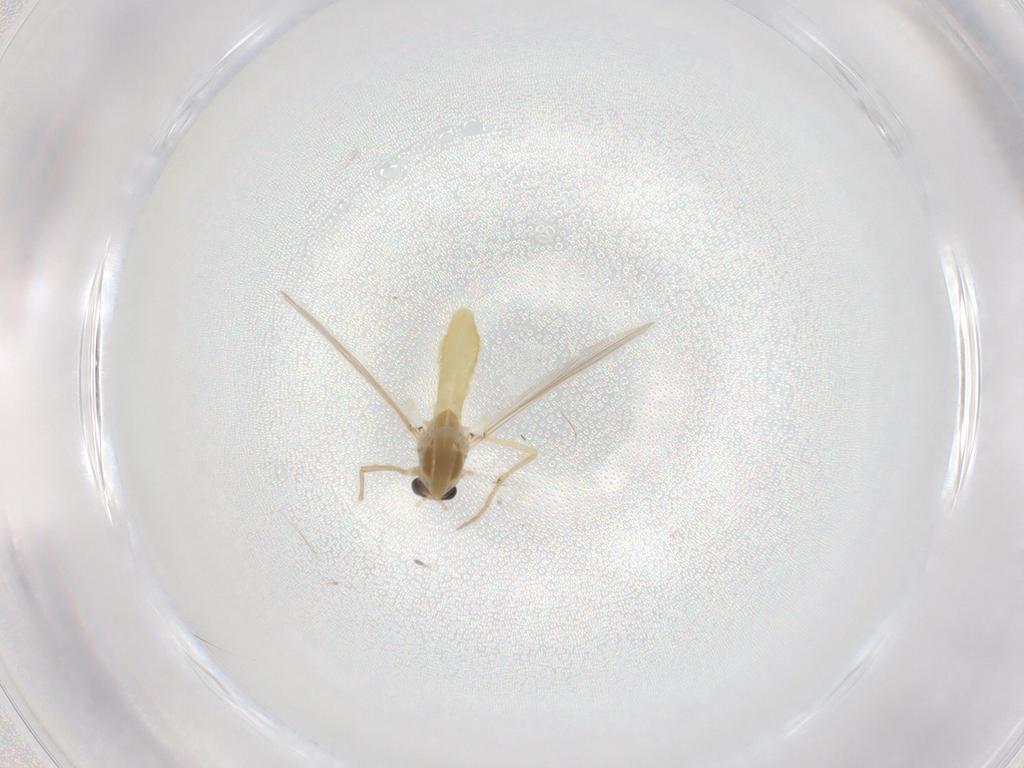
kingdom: Animalia
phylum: Arthropoda
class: Insecta
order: Diptera
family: Chironomidae
